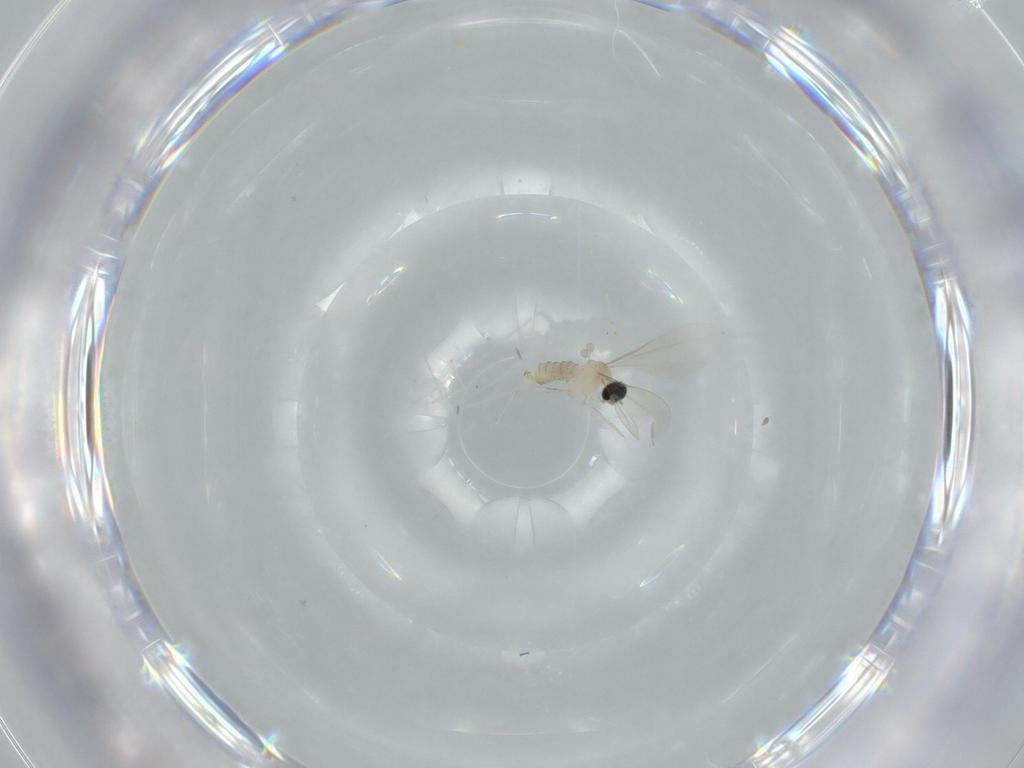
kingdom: Animalia
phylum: Arthropoda
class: Insecta
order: Diptera
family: Cecidomyiidae
